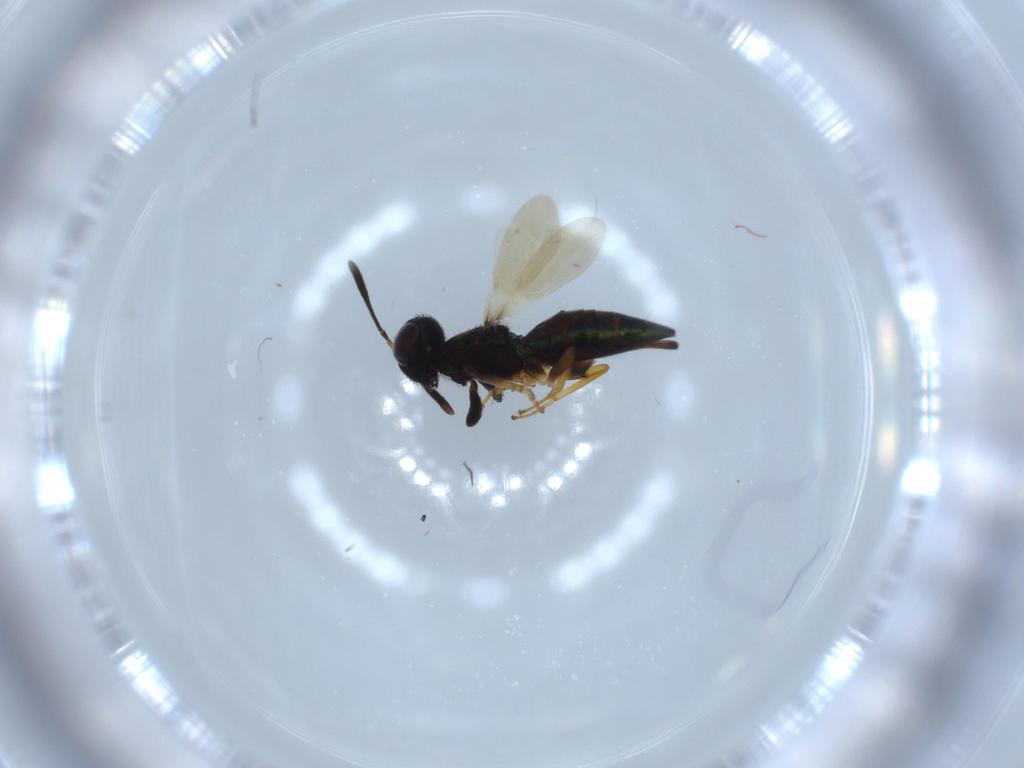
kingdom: Animalia
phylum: Arthropoda
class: Insecta
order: Hymenoptera
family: Eupelmidae
